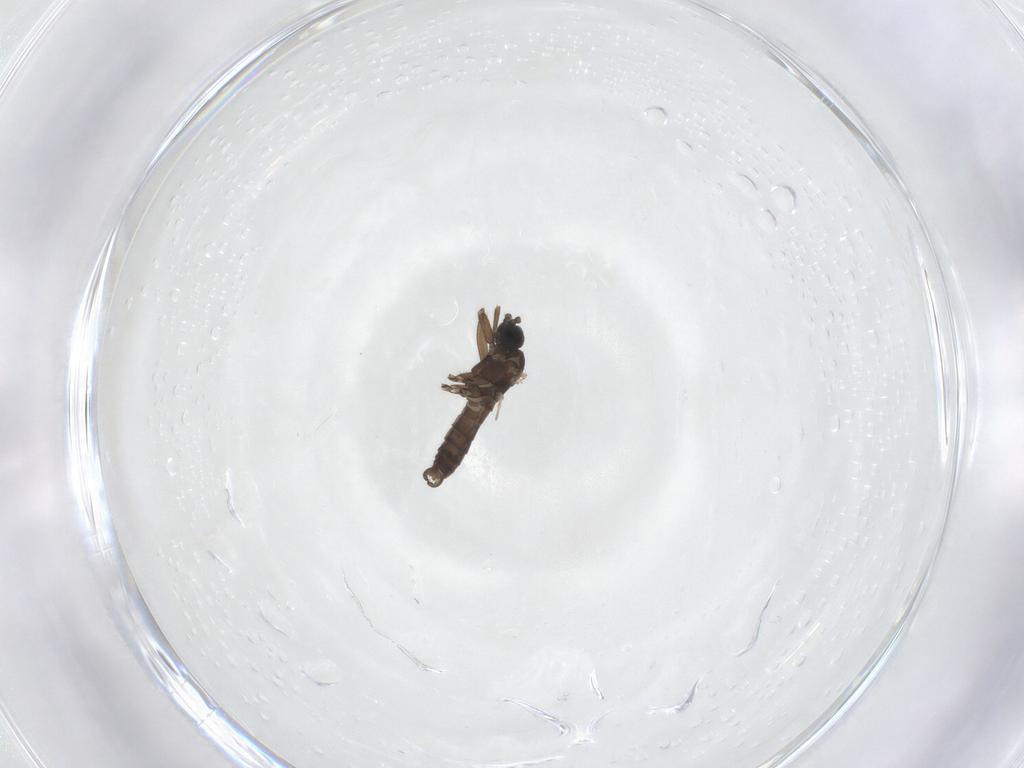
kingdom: Animalia
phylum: Arthropoda
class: Insecta
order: Diptera
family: Sciaridae
